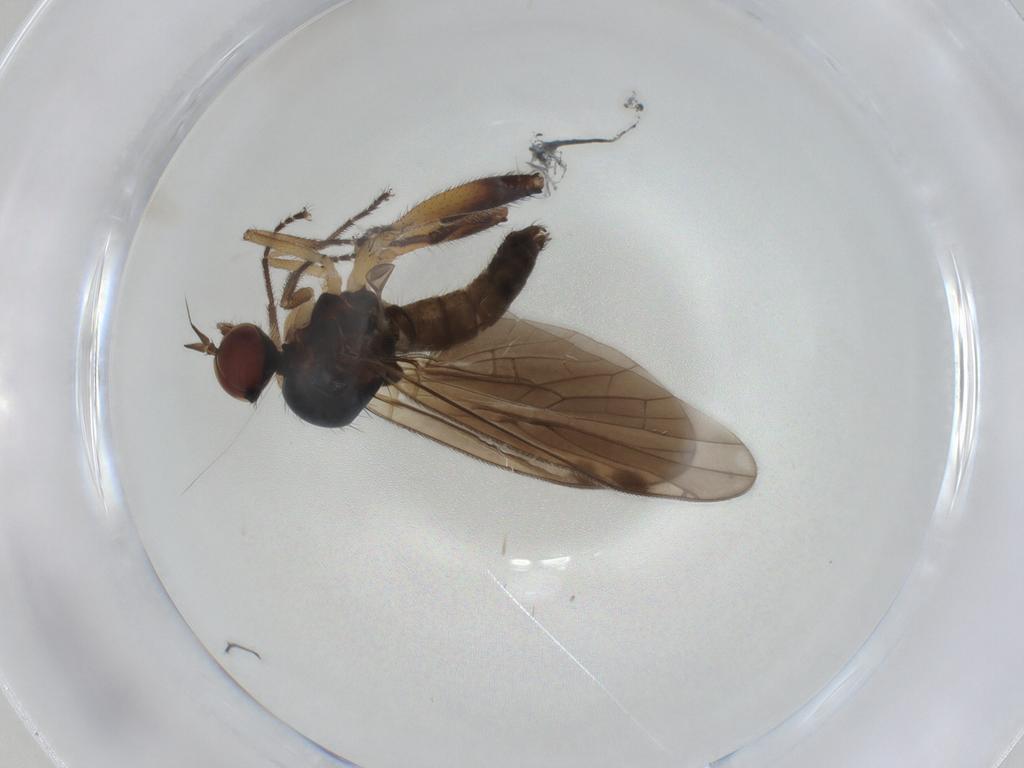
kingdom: Animalia
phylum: Arthropoda
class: Insecta
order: Diptera
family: Hybotidae
